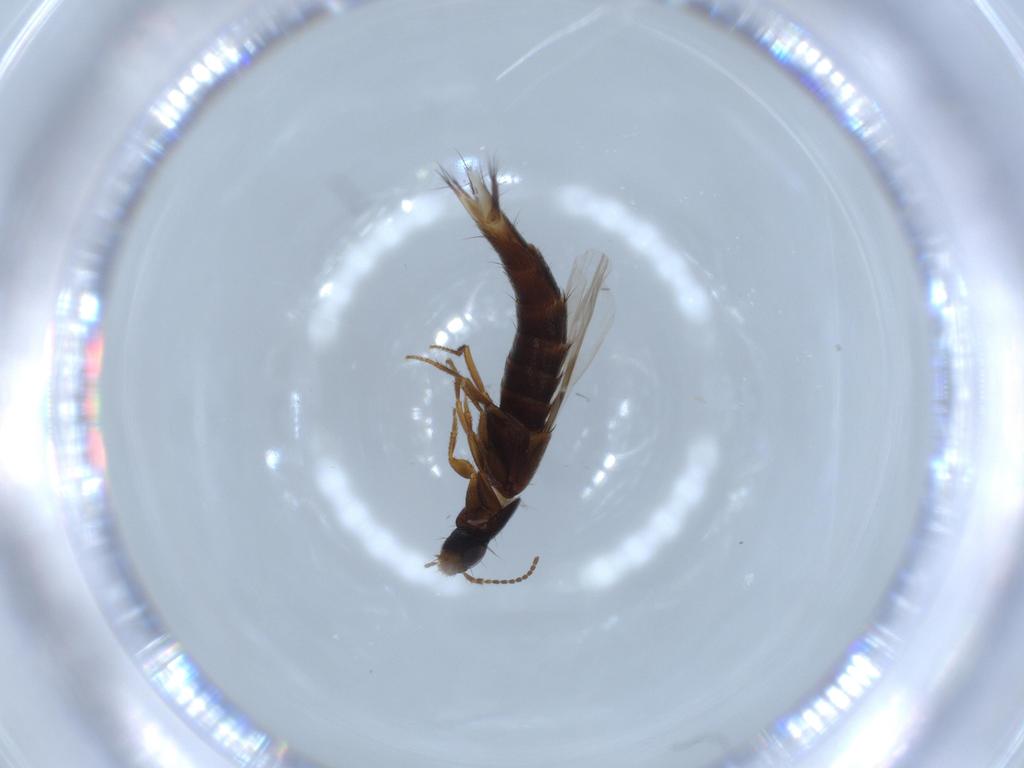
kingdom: Animalia
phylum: Arthropoda
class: Insecta
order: Coleoptera
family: Staphylinidae
